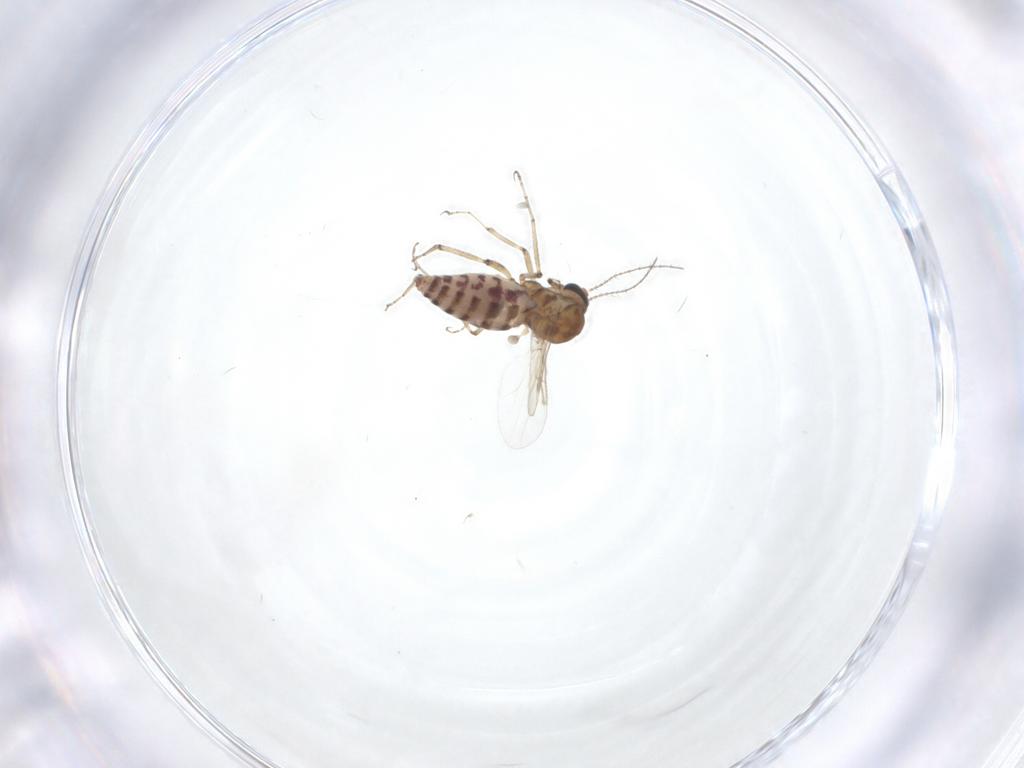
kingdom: Animalia
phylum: Arthropoda
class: Insecta
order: Diptera
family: Ceratopogonidae
